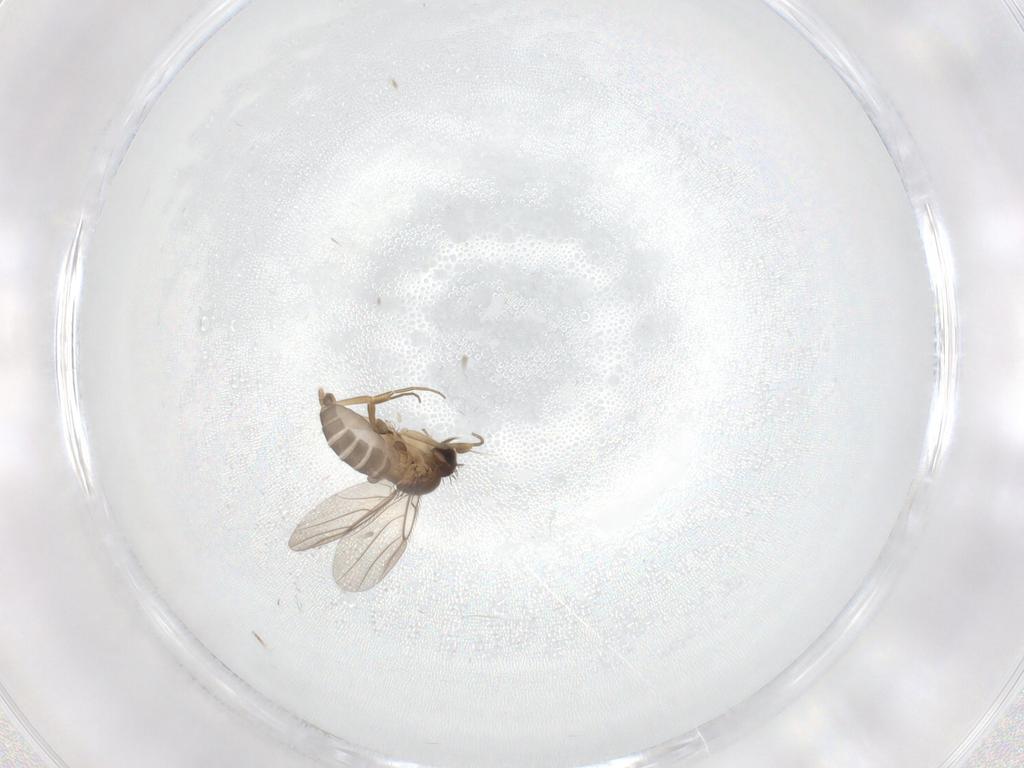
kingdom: Animalia
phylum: Arthropoda
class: Insecta
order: Diptera
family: Phoridae
